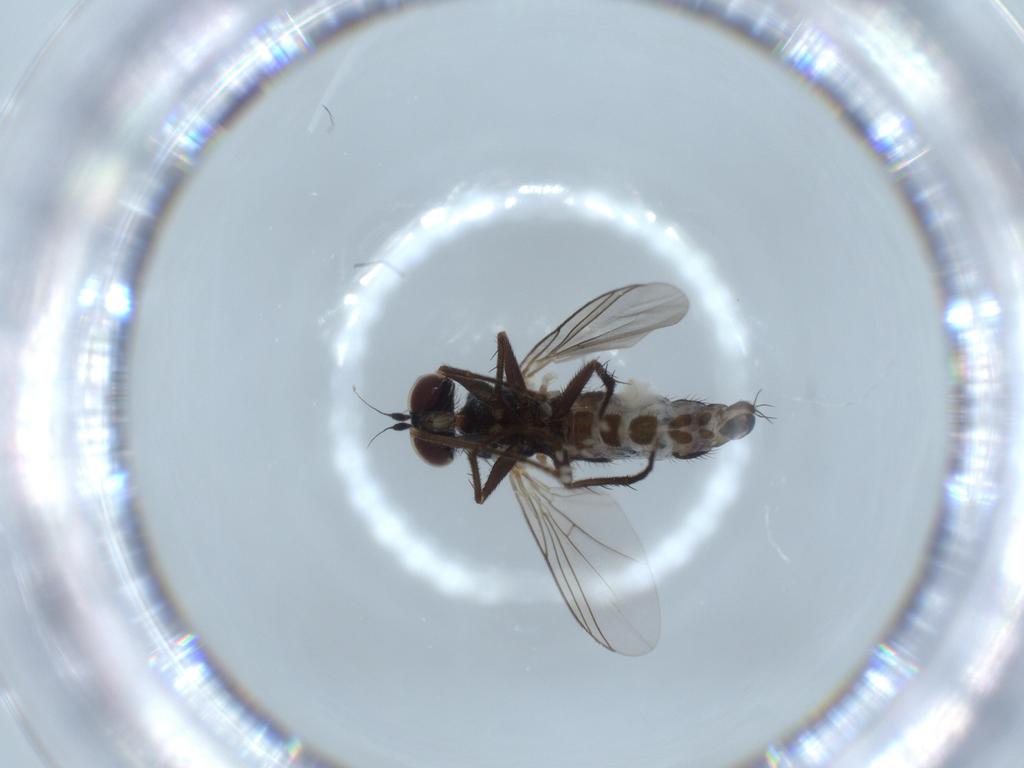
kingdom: Animalia
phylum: Arthropoda
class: Insecta
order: Diptera
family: Dolichopodidae
